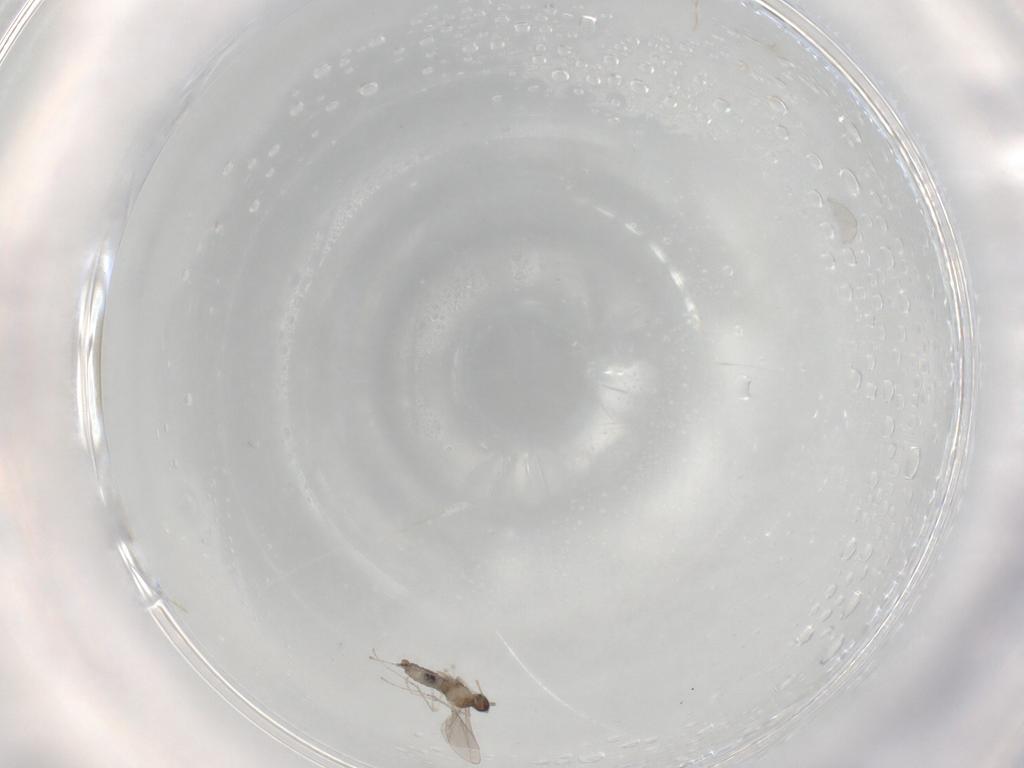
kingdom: Animalia
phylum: Arthropoda
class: Insecta
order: Diptera
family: Cecidomyiidae
